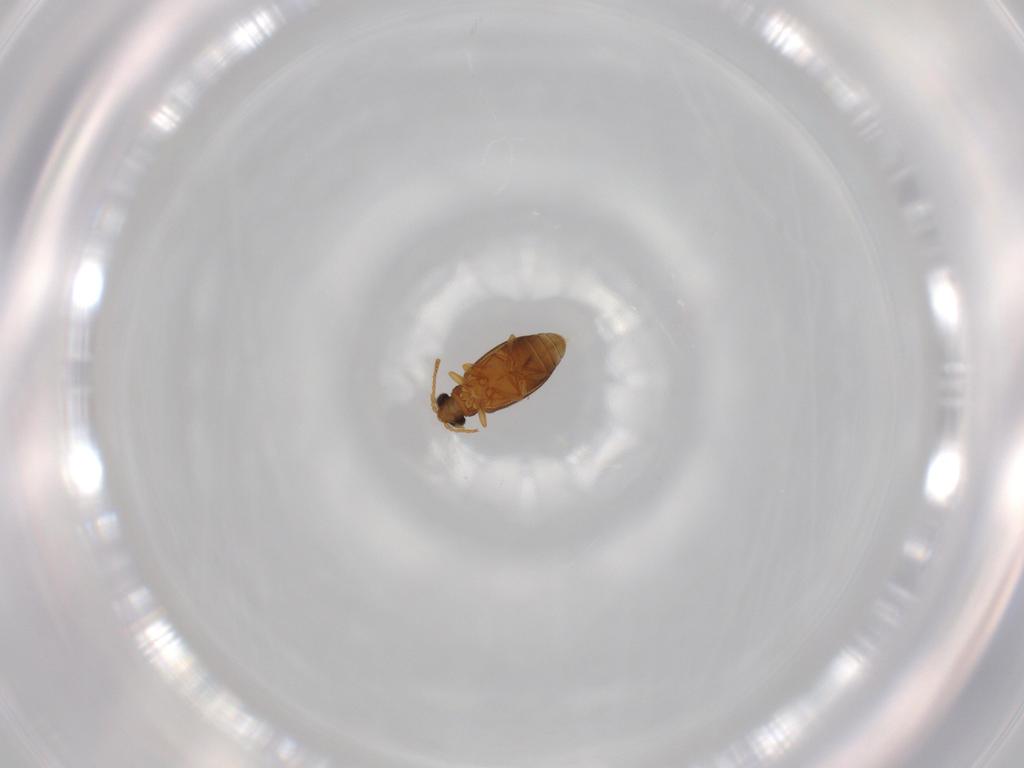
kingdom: Animalia
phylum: Arthropoda
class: Insecta
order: Coleoptera
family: Aderidae
